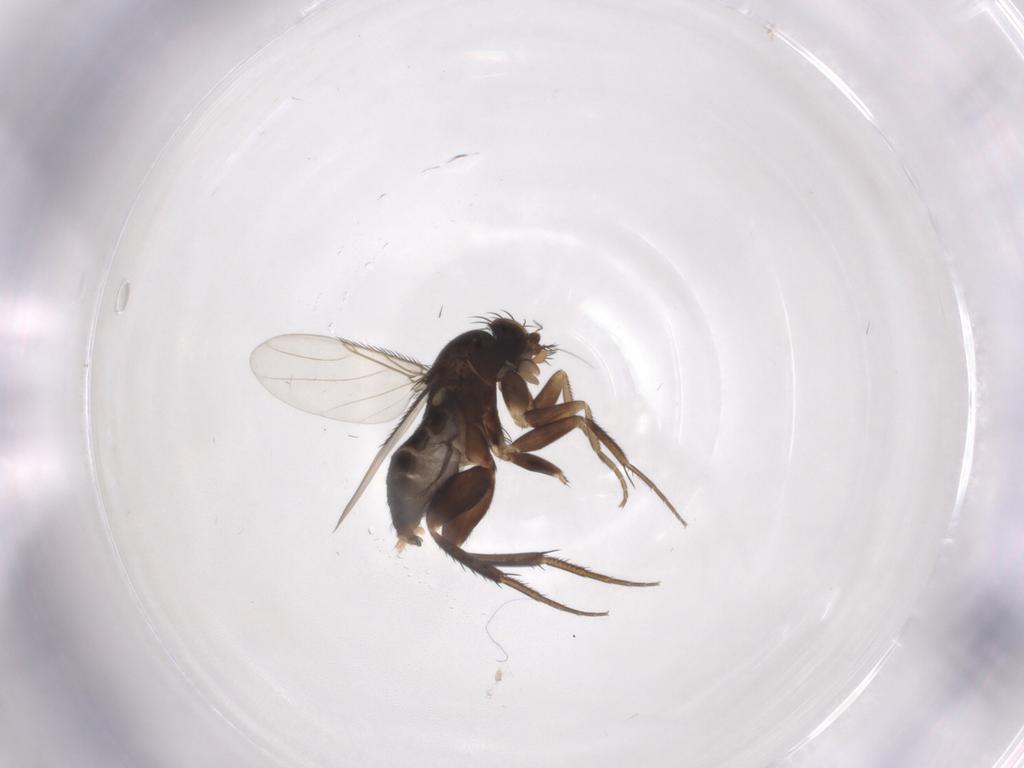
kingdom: Animalia
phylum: Arthropoda
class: Insecta
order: Diptera
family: Phoridae
